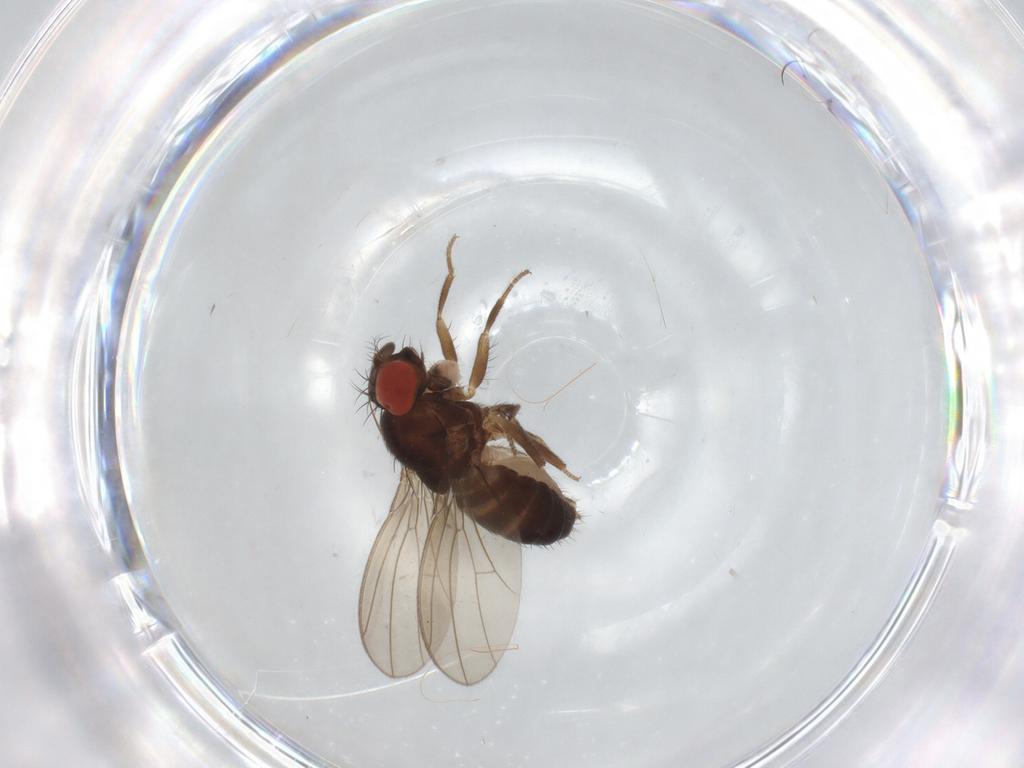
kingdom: Animalia
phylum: Arthropoda
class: Insecta
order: Diptera
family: Drosophilidae
